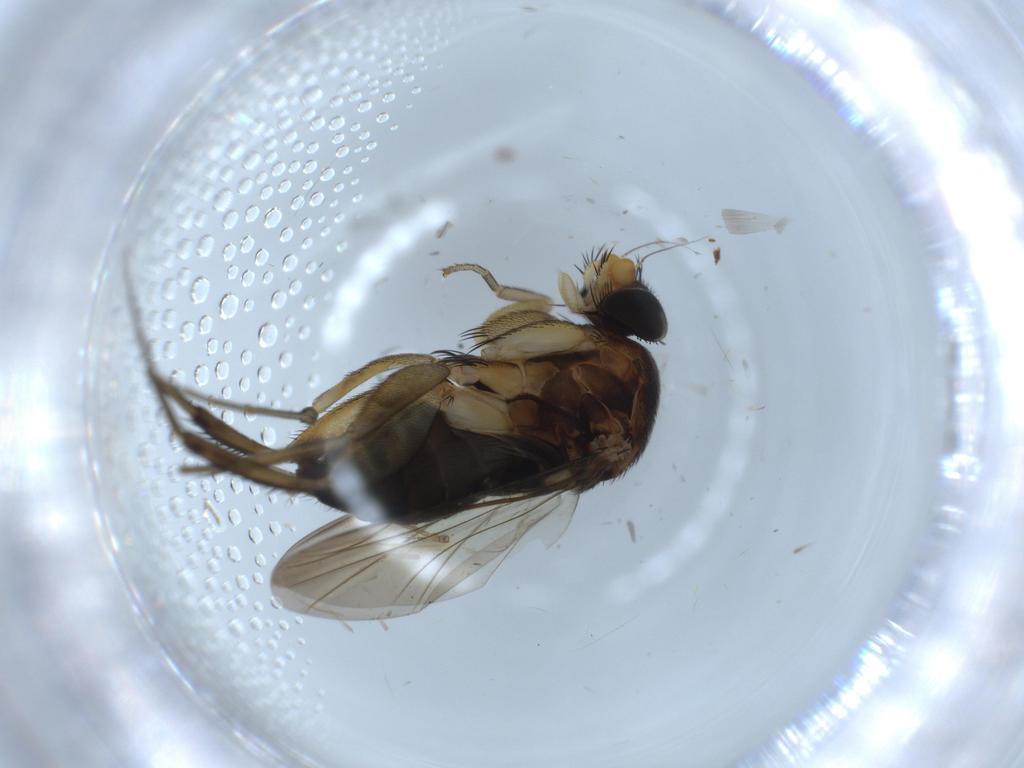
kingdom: Animalia
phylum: Arthropoda
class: Insecta
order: Diptera
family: Phoridae
